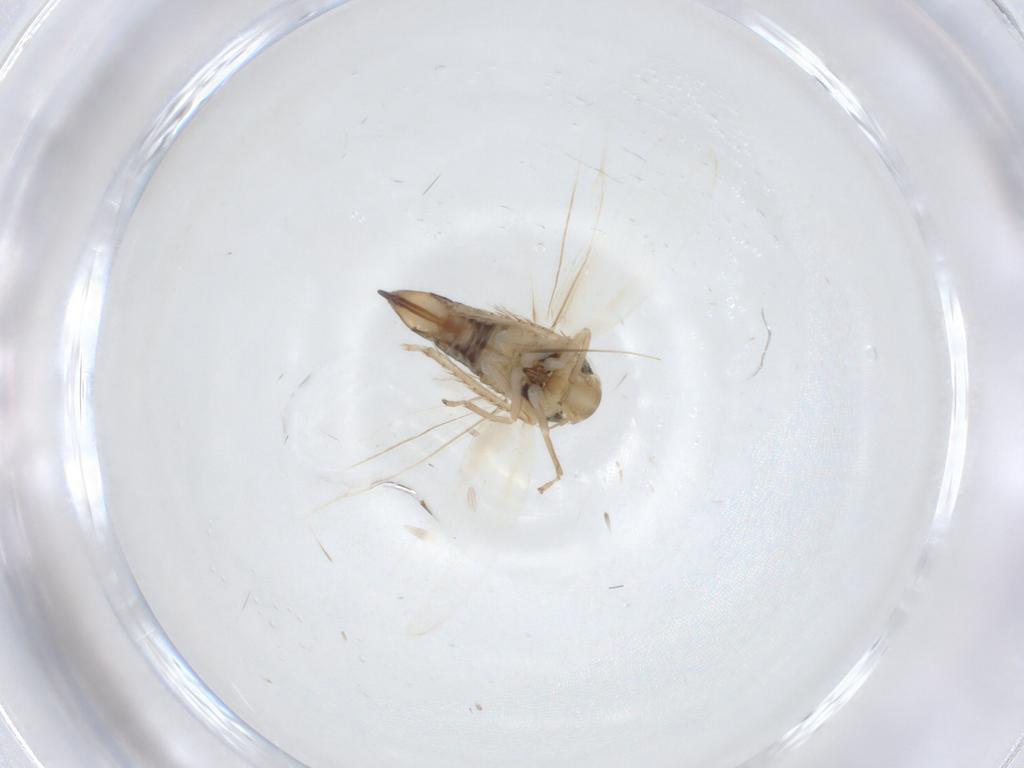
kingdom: Animalia
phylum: Arthropoda
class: Insecta
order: Hemiptera
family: Cicadellidae
